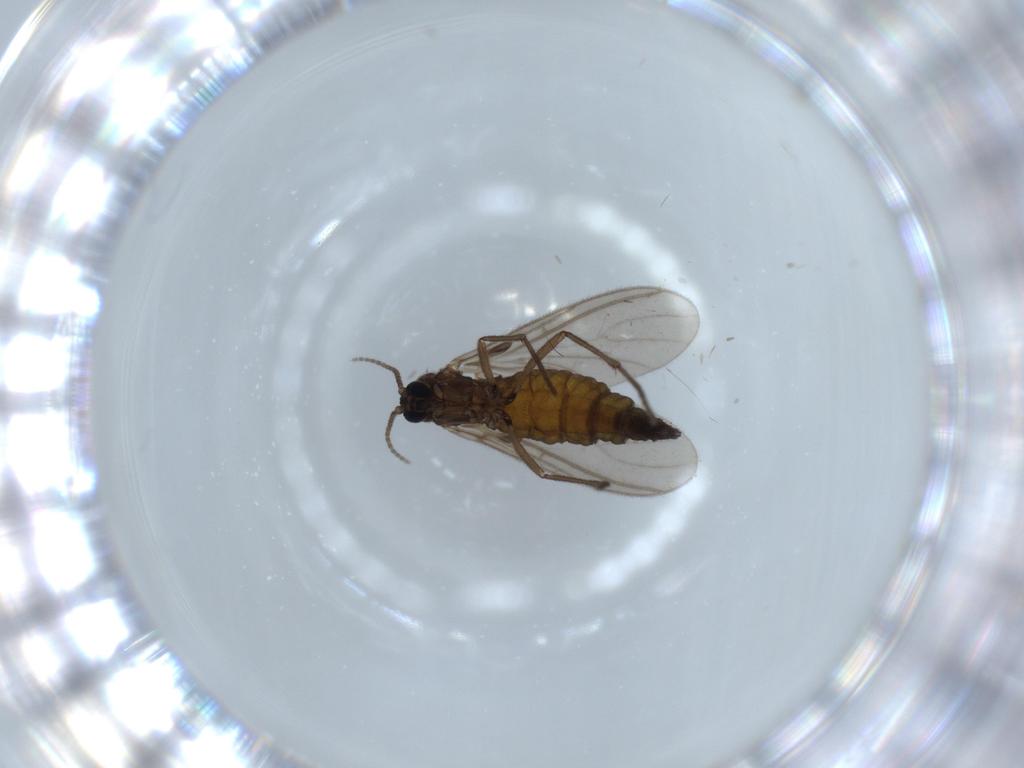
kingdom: Animalia
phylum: Arthropoda
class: Insecta
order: Diptera
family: Sciaridae
